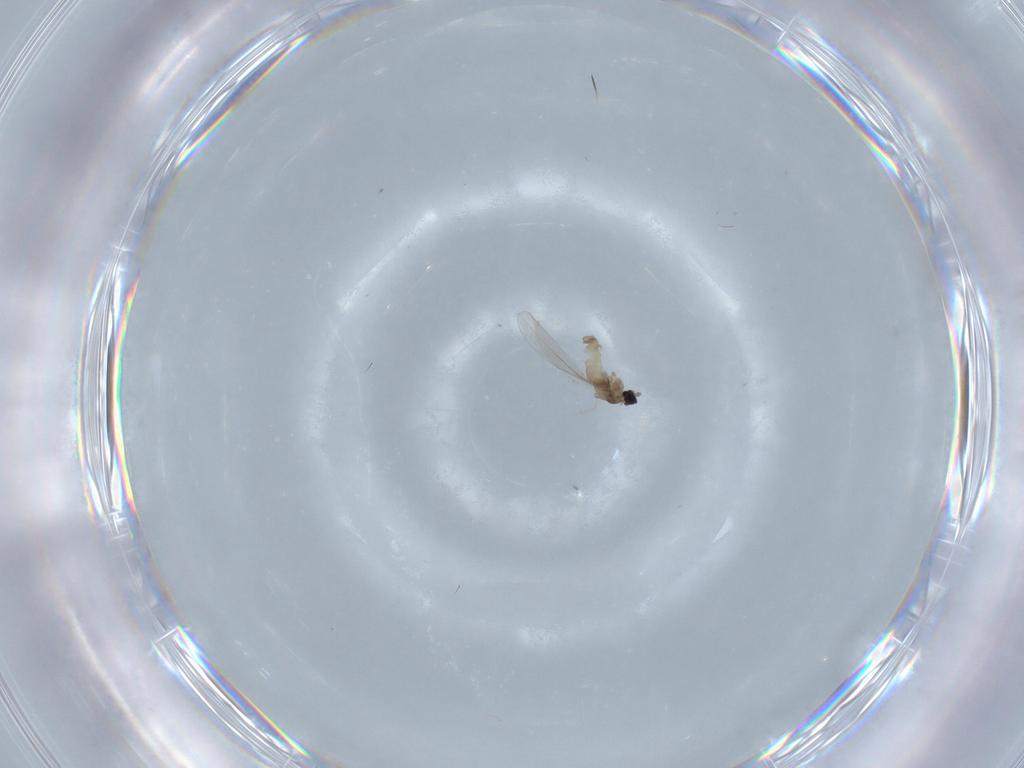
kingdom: Animalia
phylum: Arthropoda
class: Insecta
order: Diptera
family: Cecidomyiidae
